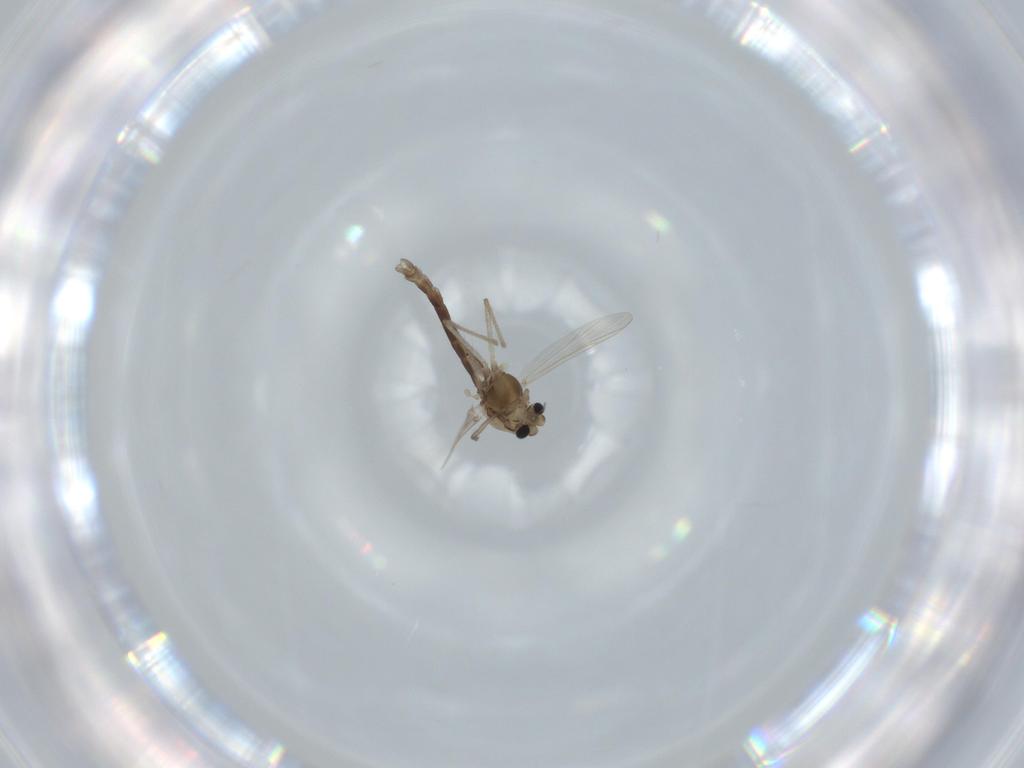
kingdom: Animalia
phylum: Arthropoda
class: Insecta
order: Diptera
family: Chironomidae
